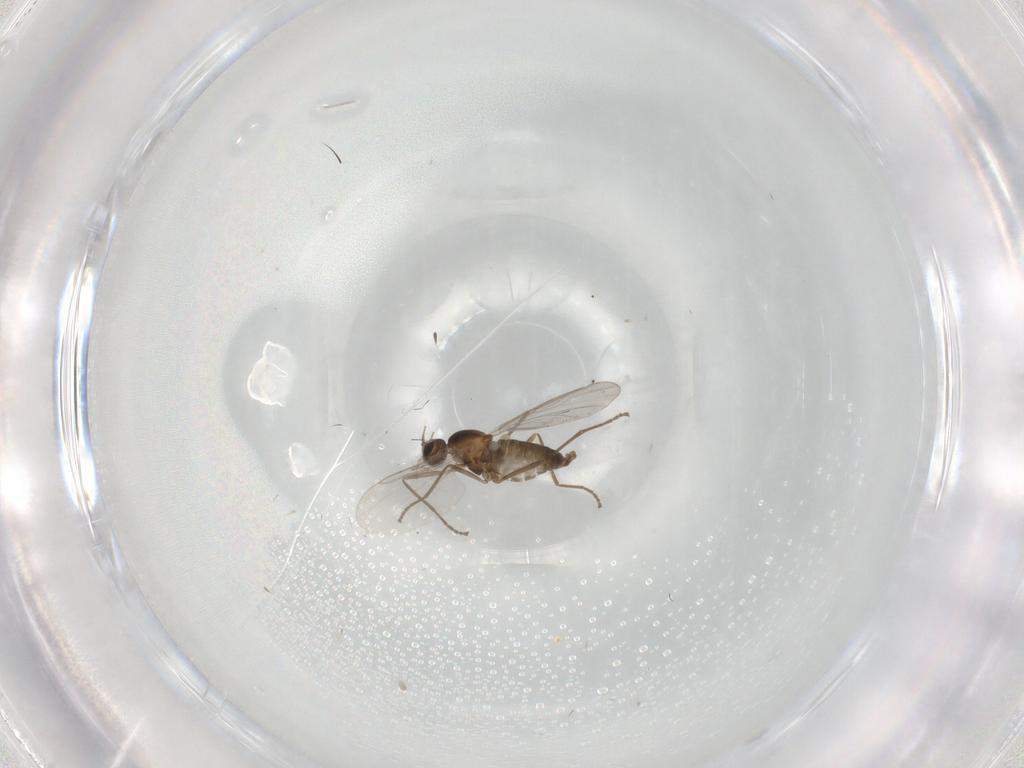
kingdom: Animalia
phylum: Arthropoda
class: Insecta
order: Diptera
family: Cecidomyiidae
